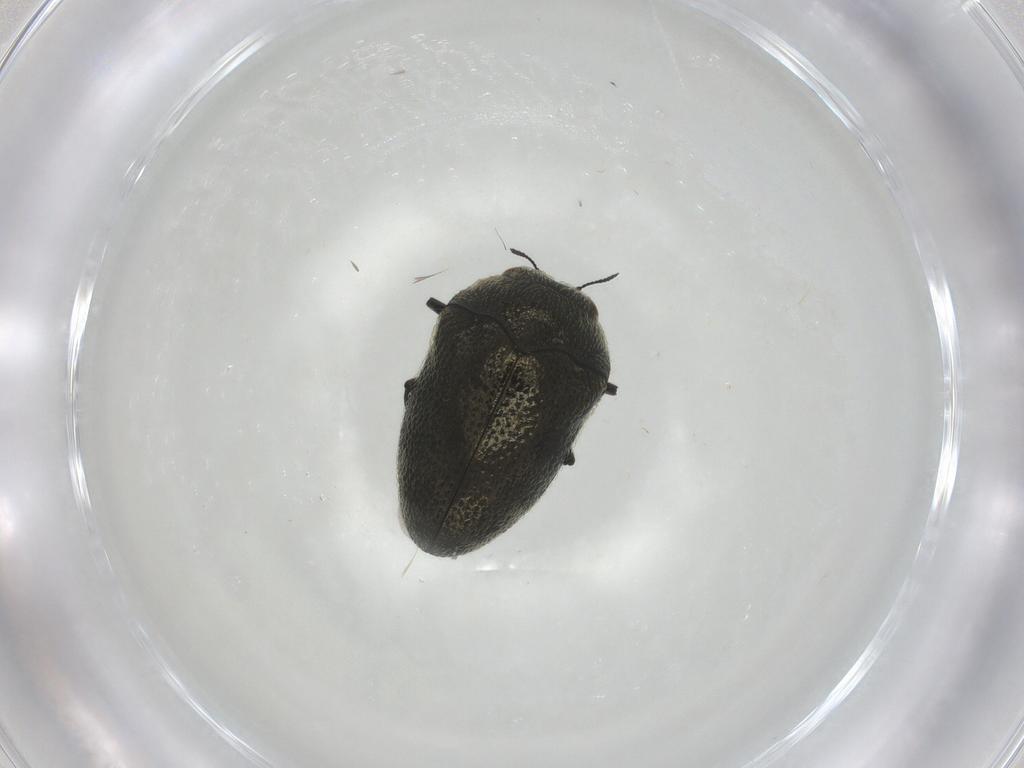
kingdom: Animalia
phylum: Arthropoda
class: Insecta
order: Coleoptera
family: Buprestidae
